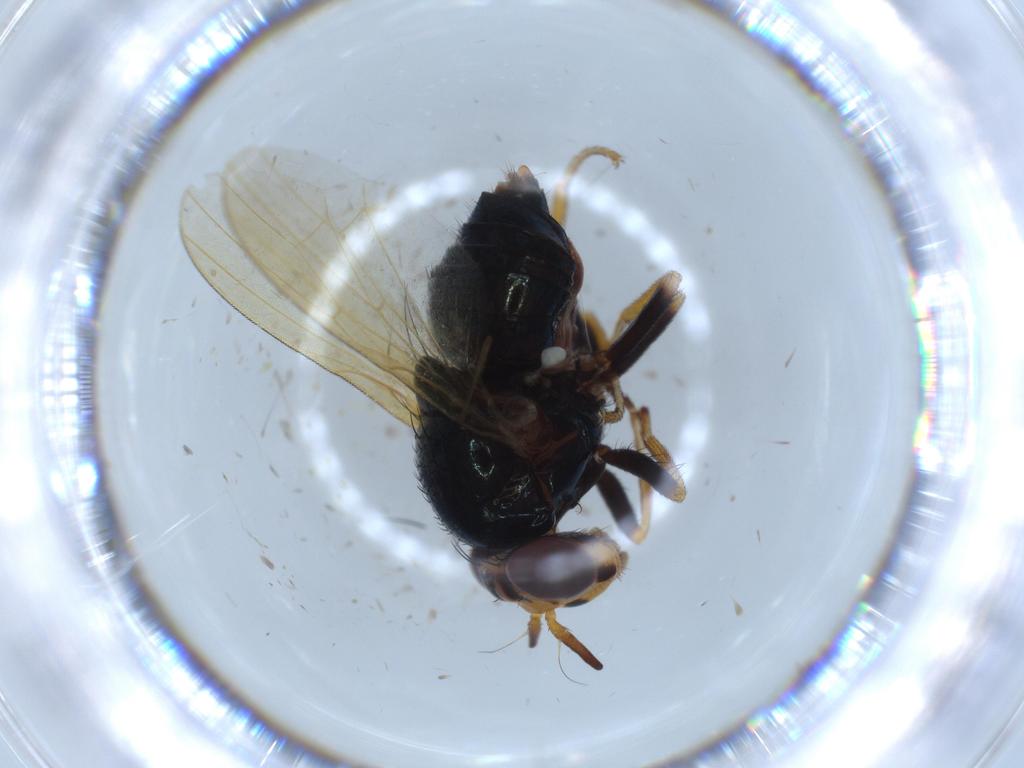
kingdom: Animalia
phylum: Arthropoda
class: Insecta
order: Diptera
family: Chironomidae
